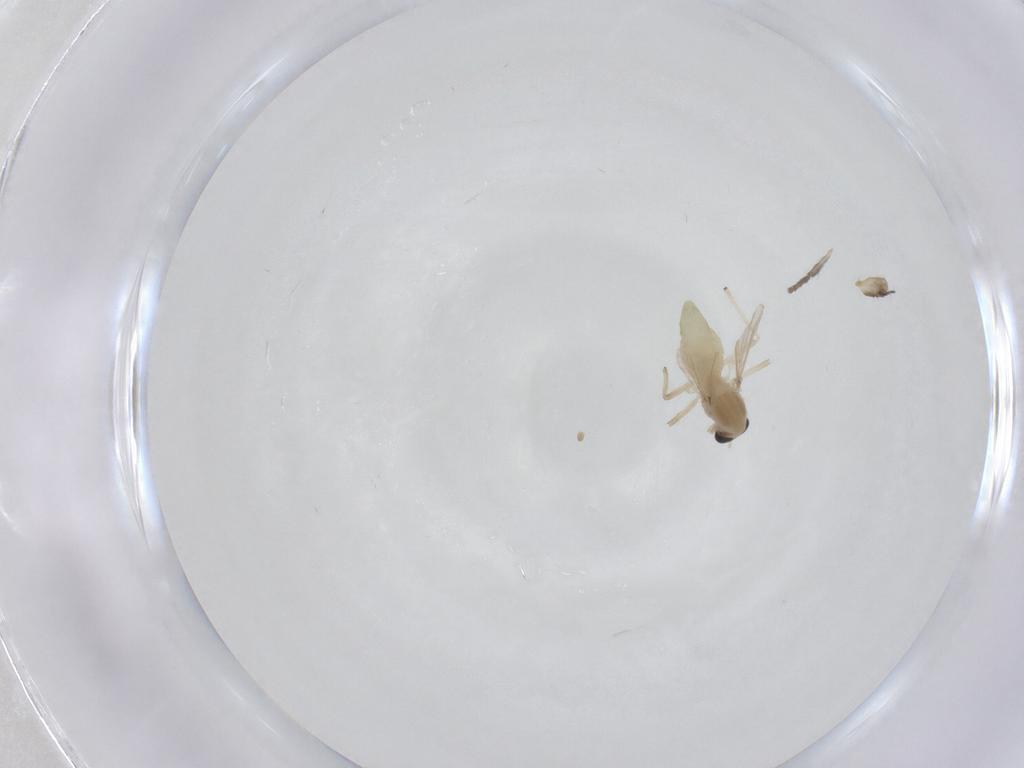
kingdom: Animalia
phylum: Arthropoda
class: Insecta
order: Diptera
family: Chironomidae
